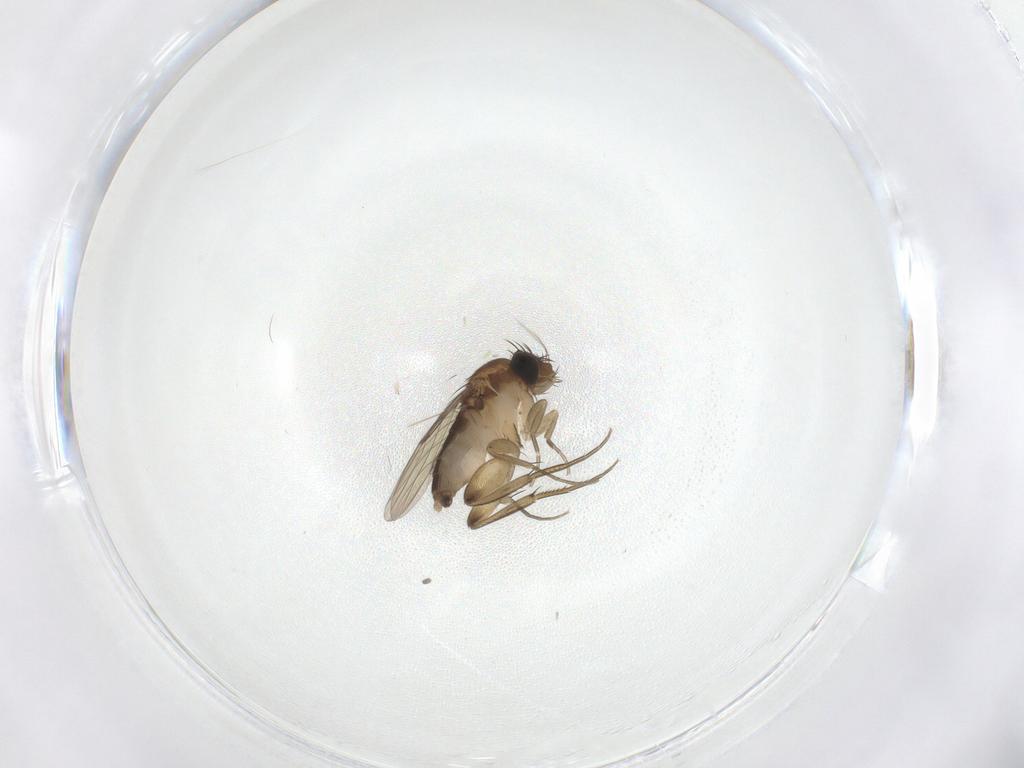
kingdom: Animalia
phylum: Arthropoda
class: Insecta
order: Diptera
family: Phoridae
